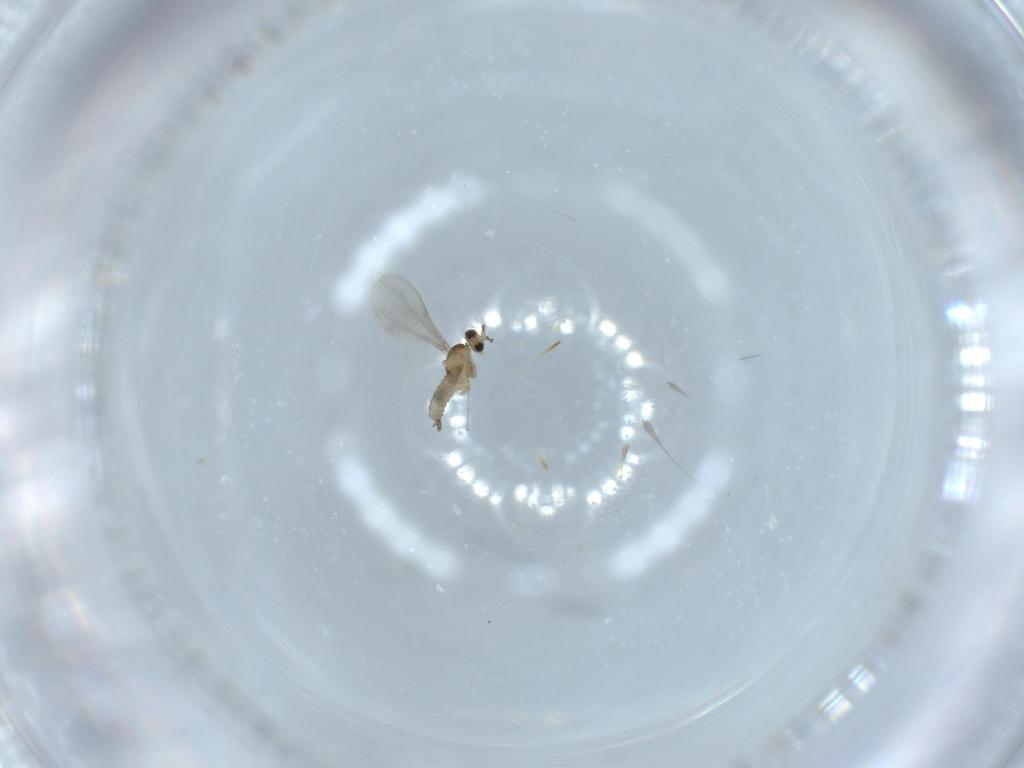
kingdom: Animalia
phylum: Arthropoda
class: Insecta
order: Diptera
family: Cecidomyiidae
